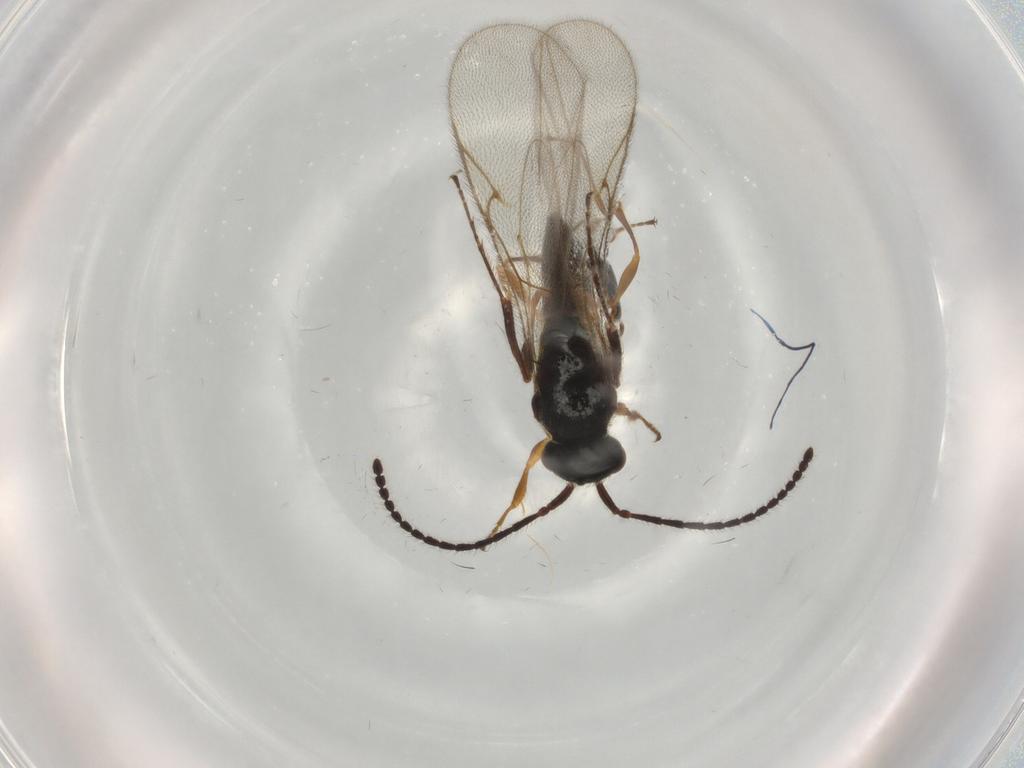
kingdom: Animalia
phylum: Arthropoda
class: Insecta
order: Hymenoptera
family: Diapriidae
